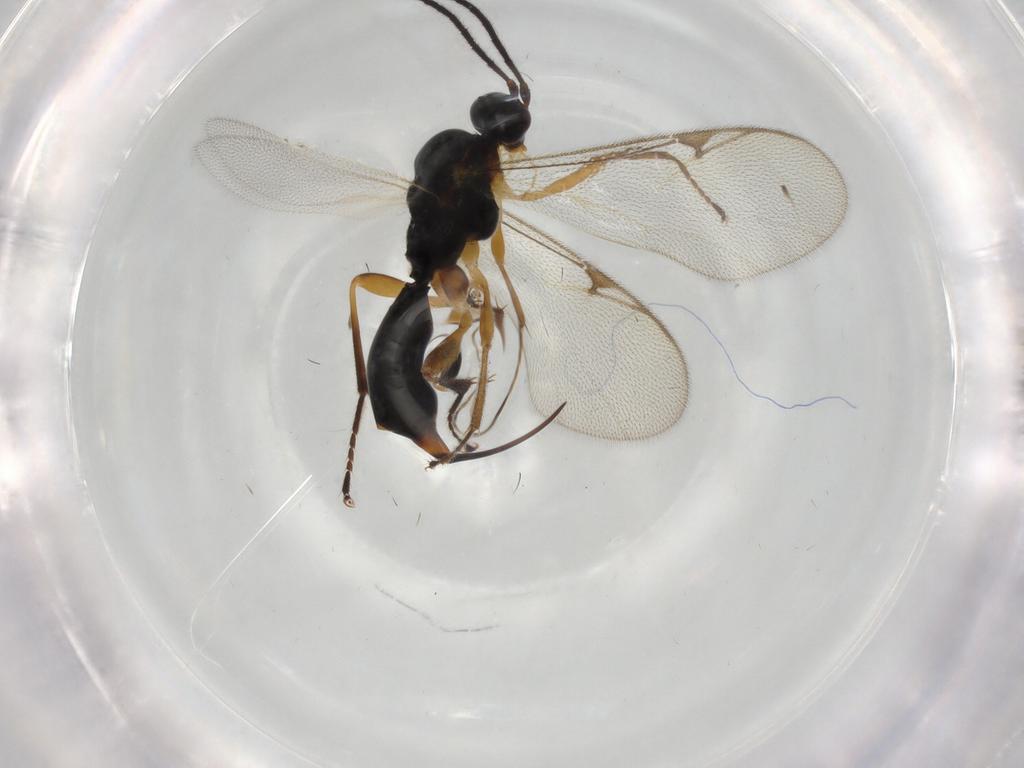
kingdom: Animalia
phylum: Arthropoda
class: Insecta
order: Hymenoptera
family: Proctotrupidae
